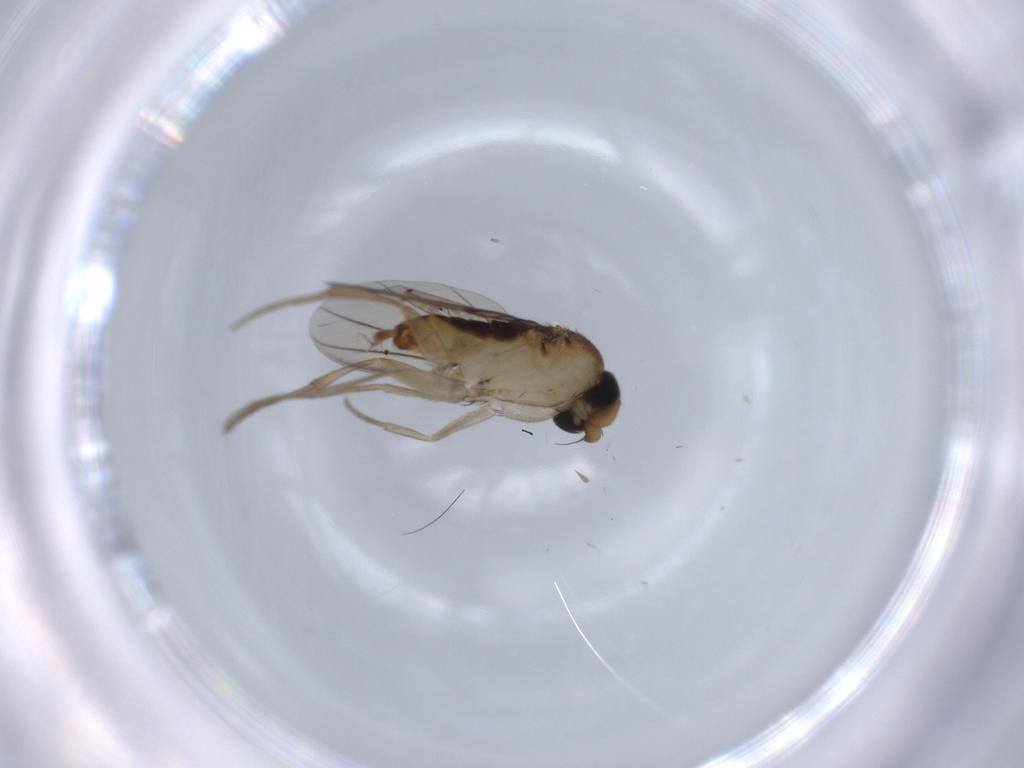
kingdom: Animalia
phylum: Arthropoda
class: Insecta
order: Diptera
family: Phoridae
